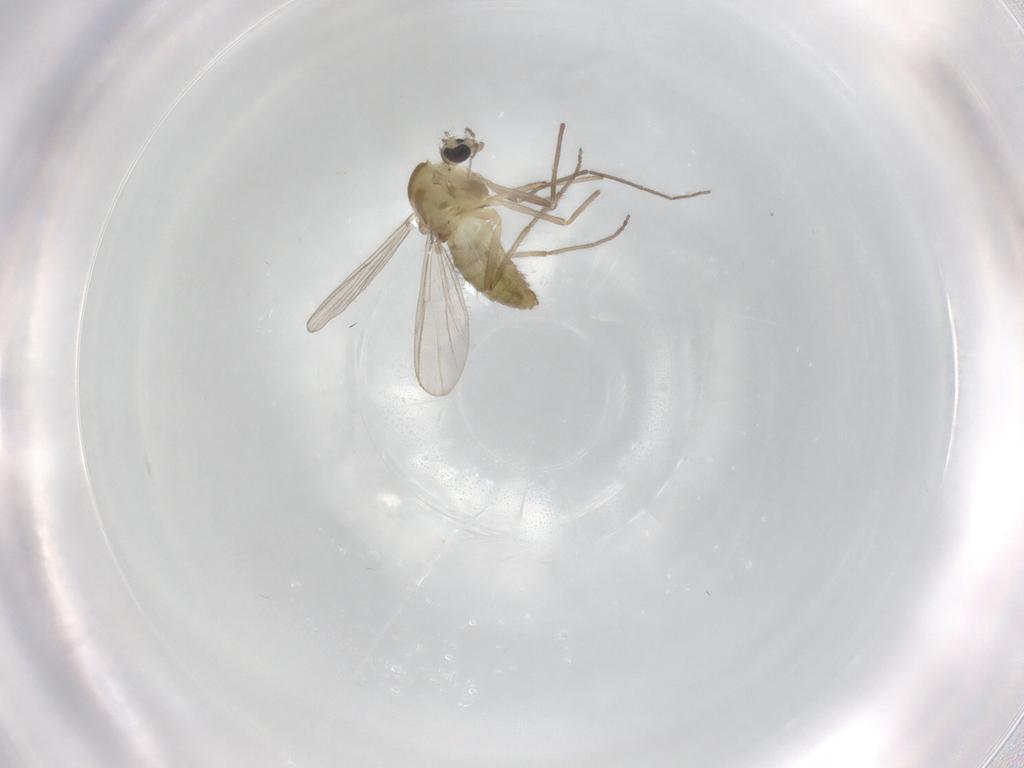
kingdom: Animalia
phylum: Arthropoda
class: Insecta
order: Diptera
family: Chironomidae
